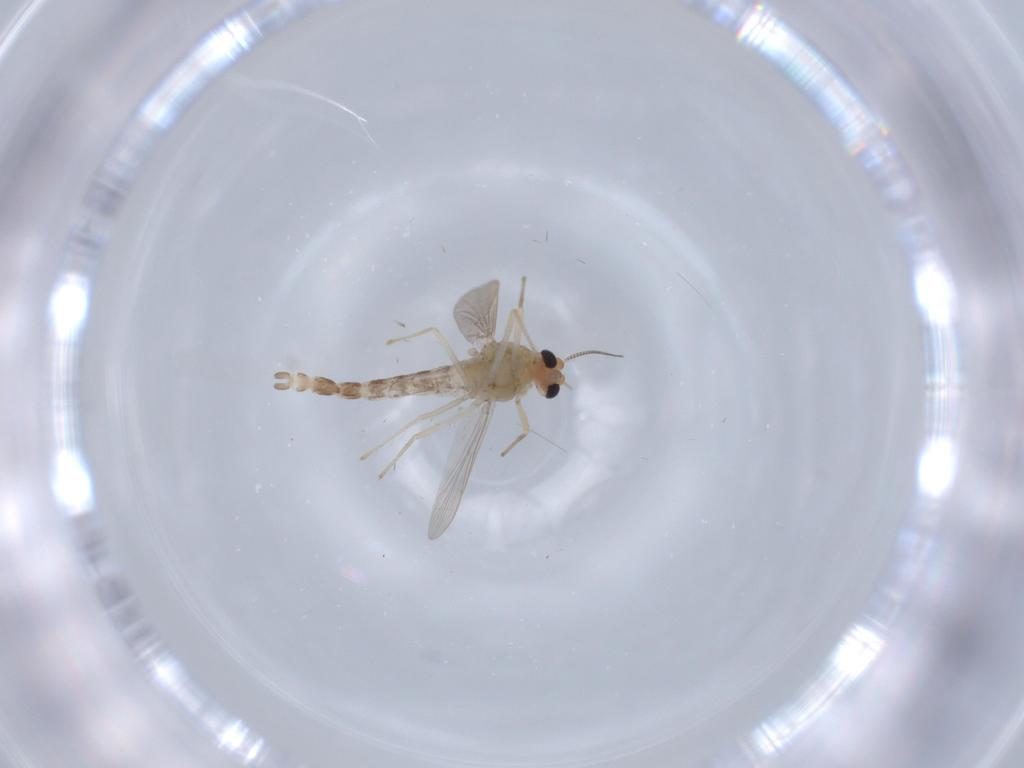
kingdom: Animalia
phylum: Arthropoda
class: Insecta
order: Diptera
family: Chironomidae
